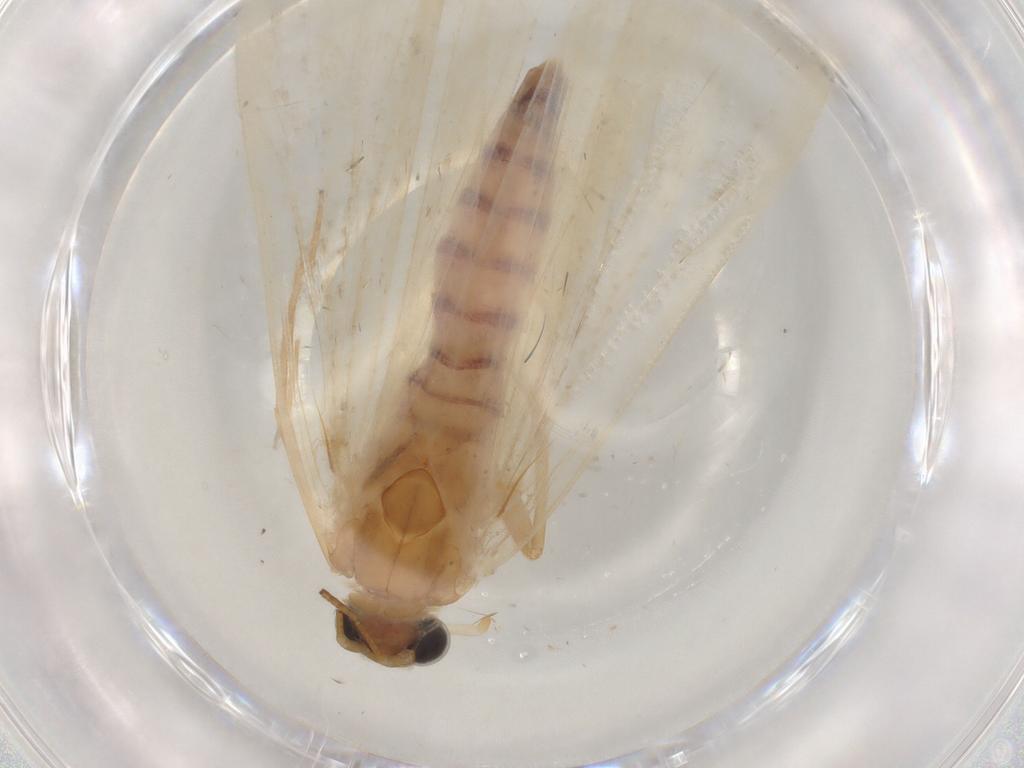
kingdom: Animalia
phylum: Arthropoda
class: Insecta
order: Lepidoptera
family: Crambidae
